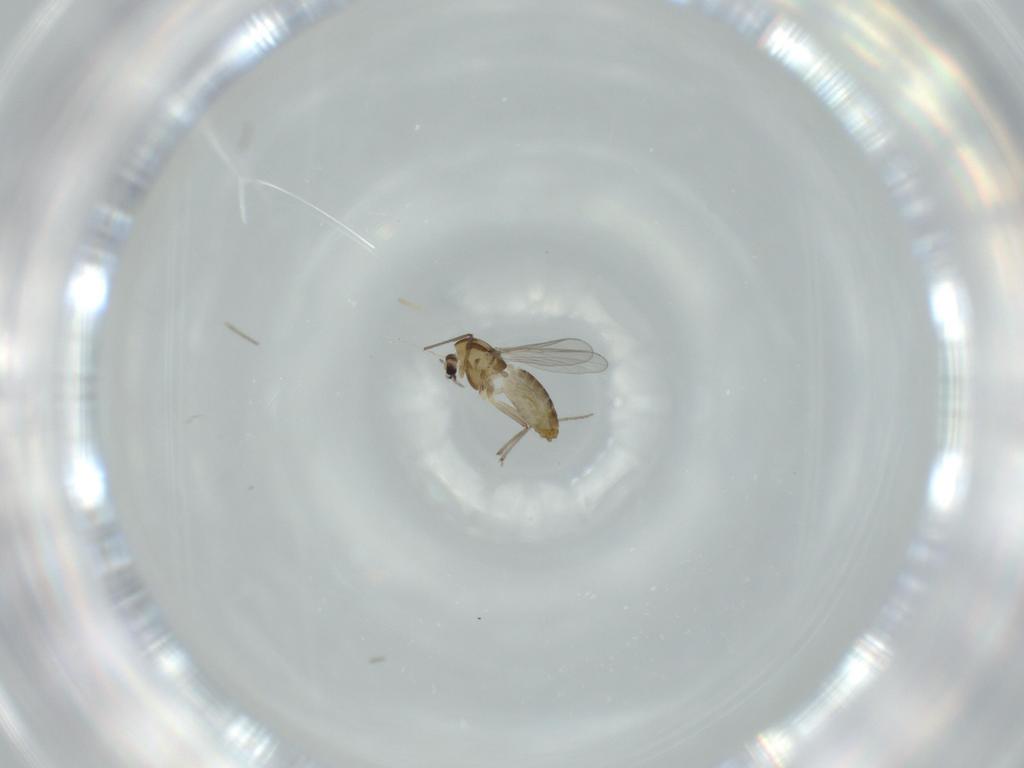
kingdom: Animalia
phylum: Arthropoda
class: Insecta
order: Diptera
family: Chironomidae
